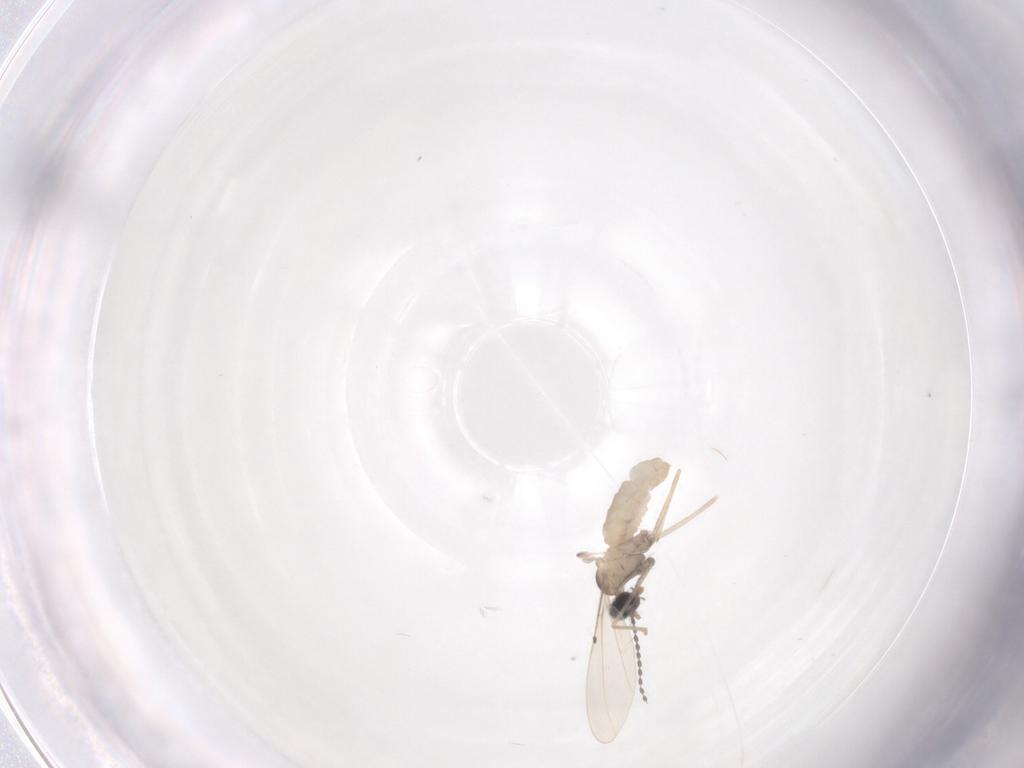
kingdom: Animalia
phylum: Arthropoda
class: Insecta
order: Diptera
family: Cecidomyiidae
